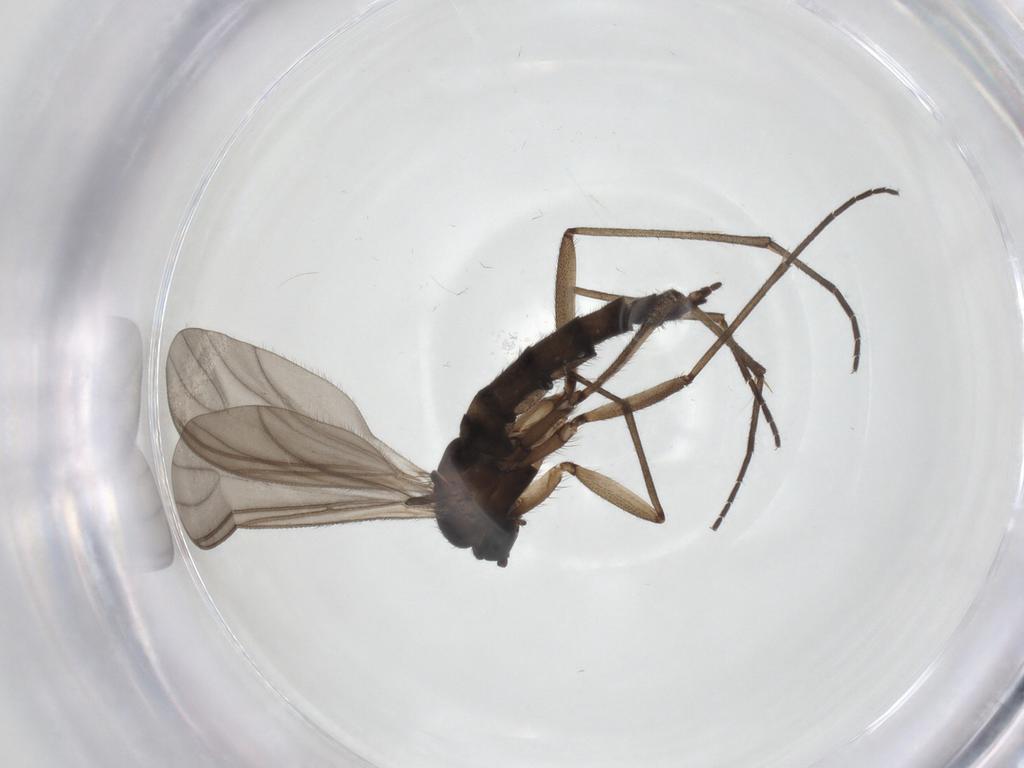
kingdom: Animalia
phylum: Arthropoda
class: Insecta
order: Diptera
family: Sciaridae
